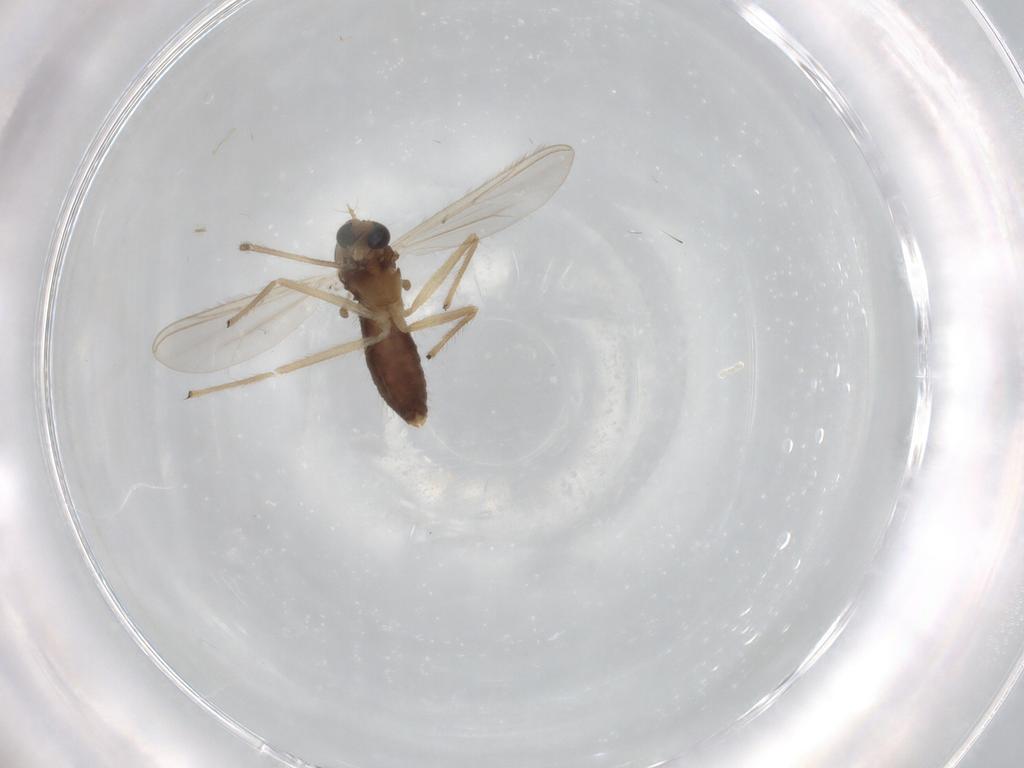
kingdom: Animalia
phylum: Arthropoda
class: Insecta
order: Diptera
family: Chironomidae
